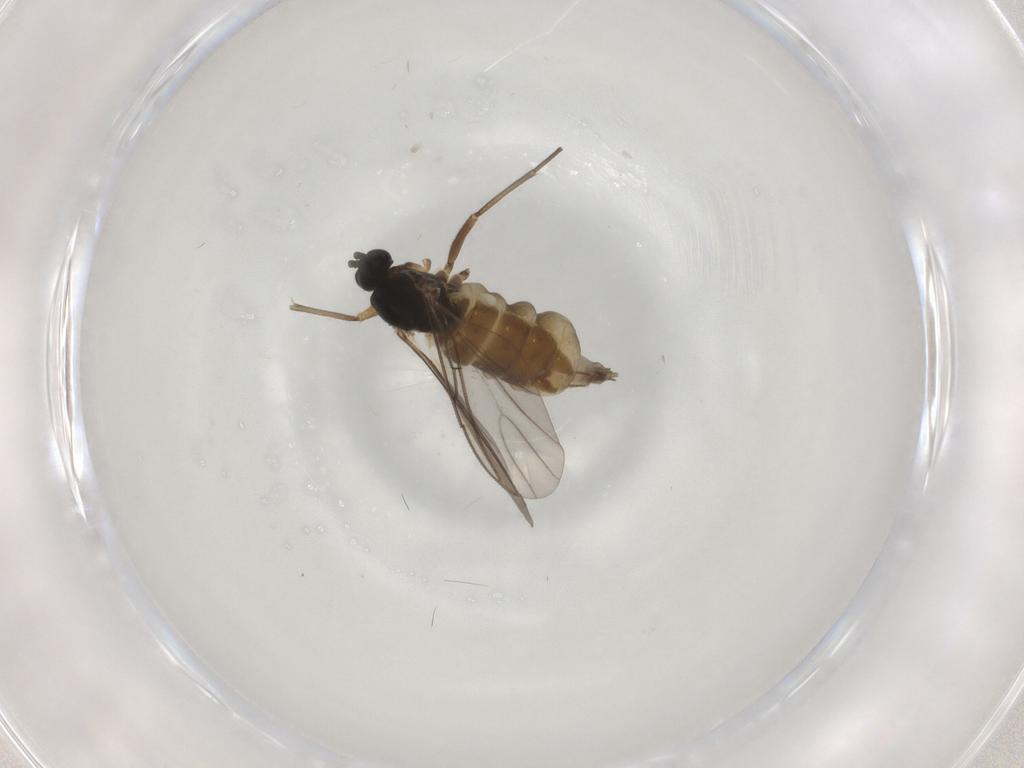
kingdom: Animalia
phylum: Arthropoda
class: Insecta
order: Diptera
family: Sciaridae
